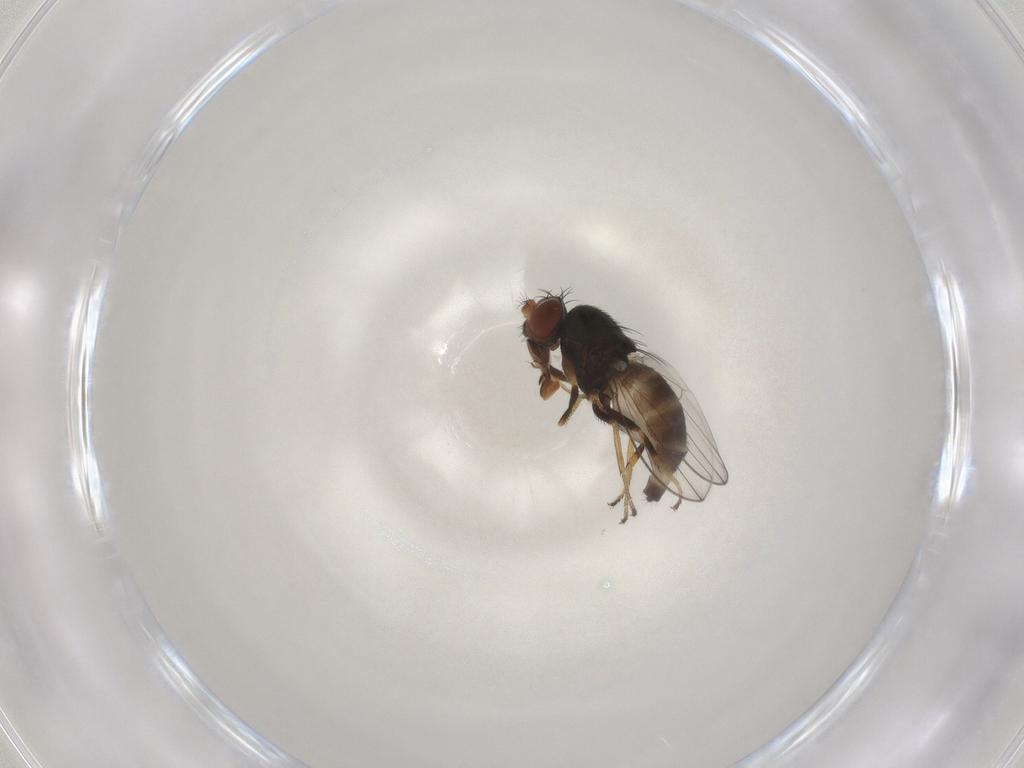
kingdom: Animalia
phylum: Arthropoda
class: Insecta
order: Diptera
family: Ephydridae
